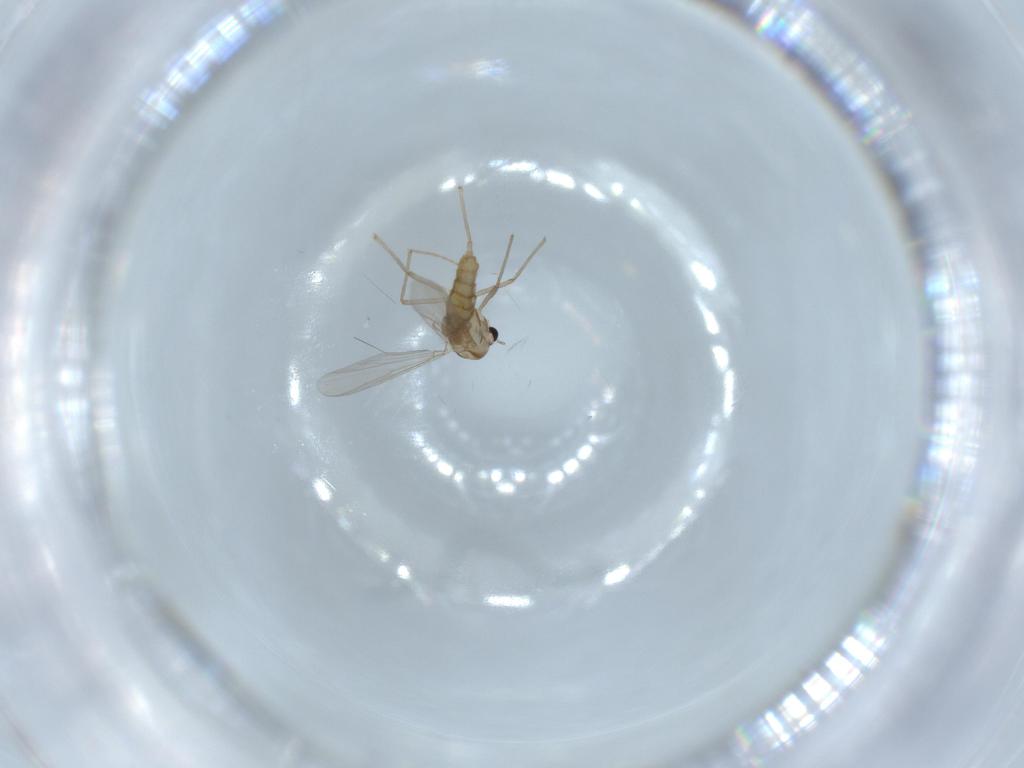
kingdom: Animalia
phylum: Arthropoda
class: Insecta
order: Diptera
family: Chironomidae
